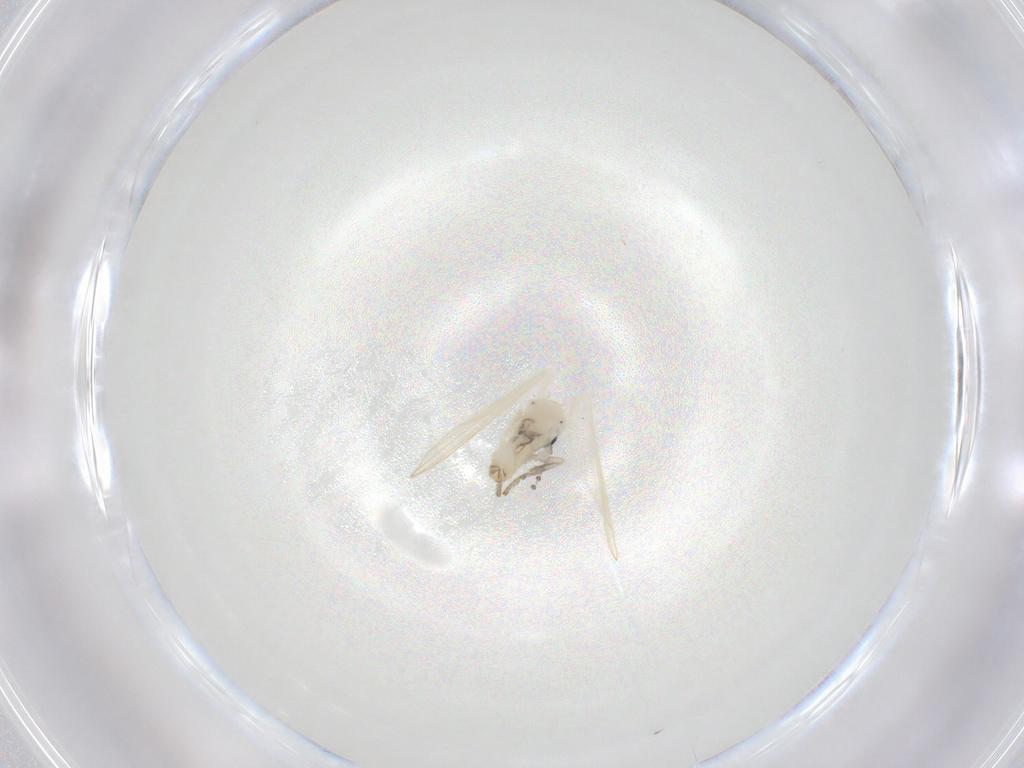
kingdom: Animalia
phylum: Arthropoda
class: Insecta
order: Diptera
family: Psychodidae
